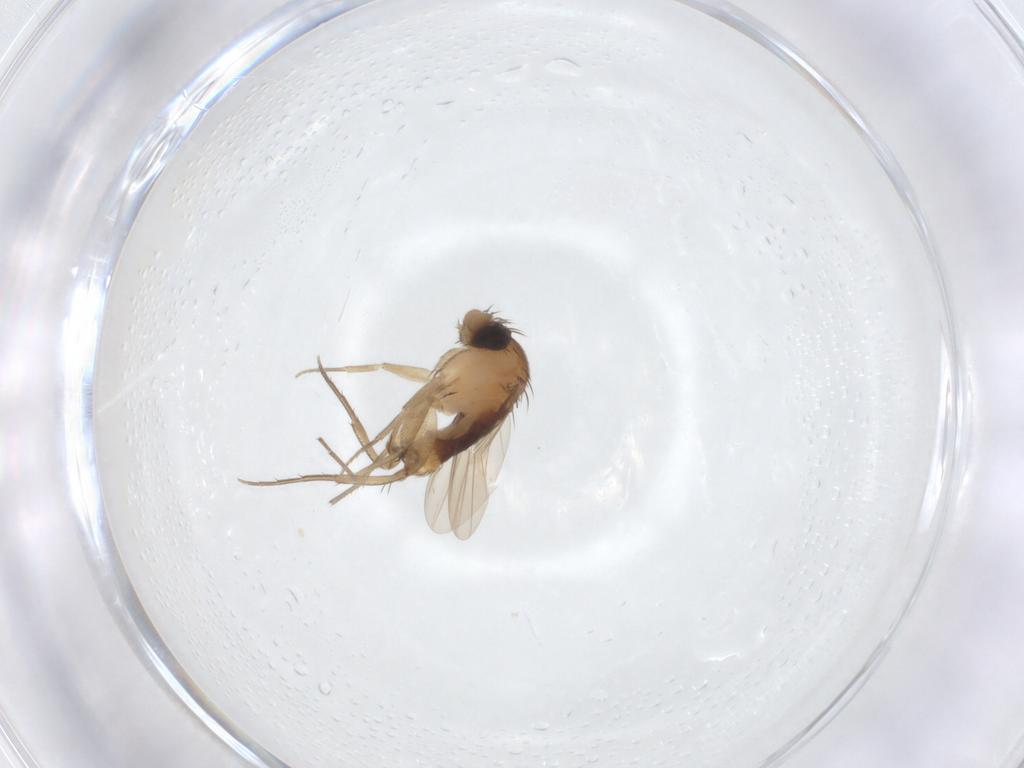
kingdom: Animalia
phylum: Arthropoda
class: Insecta
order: Diptera
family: Phoridae
